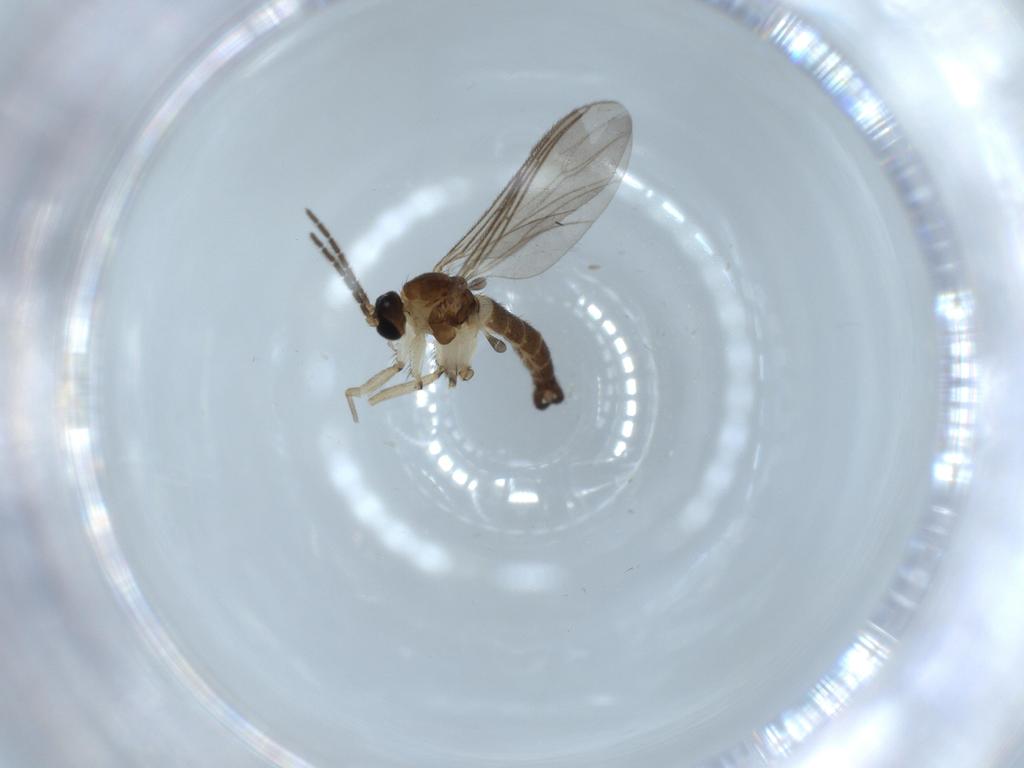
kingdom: Animalia
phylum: Arthropoda
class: Insecta
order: Diptera
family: Sciaridae
